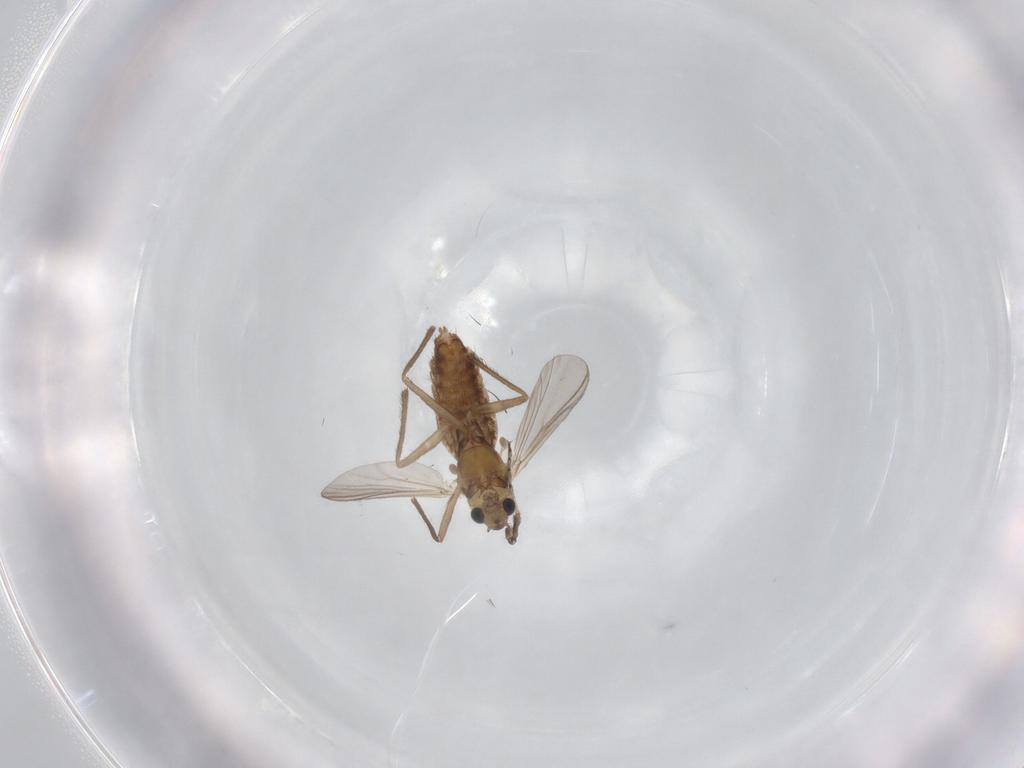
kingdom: Animalia
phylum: Arthropoda
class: Insecta
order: Diptera
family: Chironomidae
